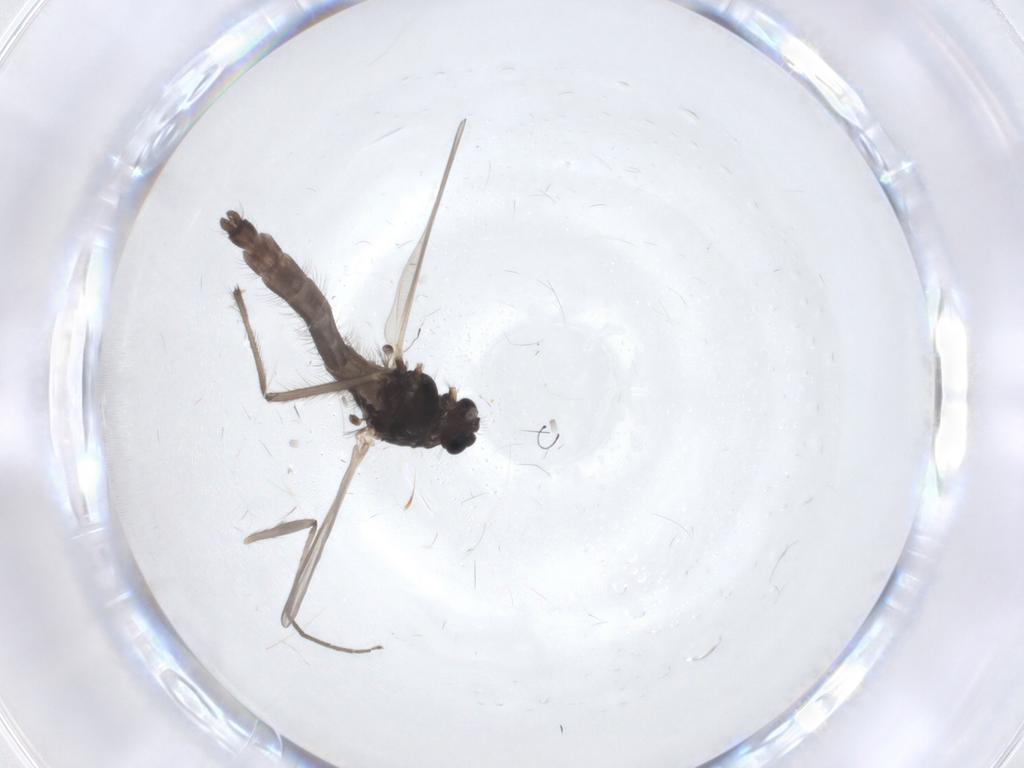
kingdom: Animalia
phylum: Arthropoda
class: Insecta
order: Diptera
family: Chironomidae
